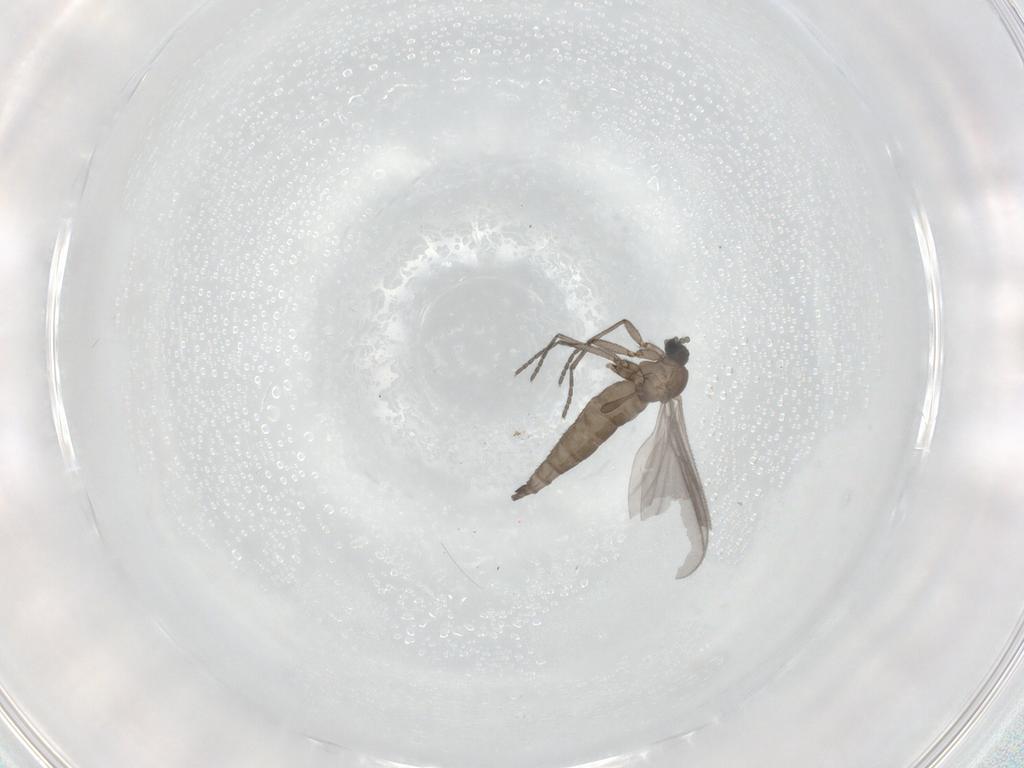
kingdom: Animalia
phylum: Arthropoda
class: Insecta
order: Diptera
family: Sciaridae
